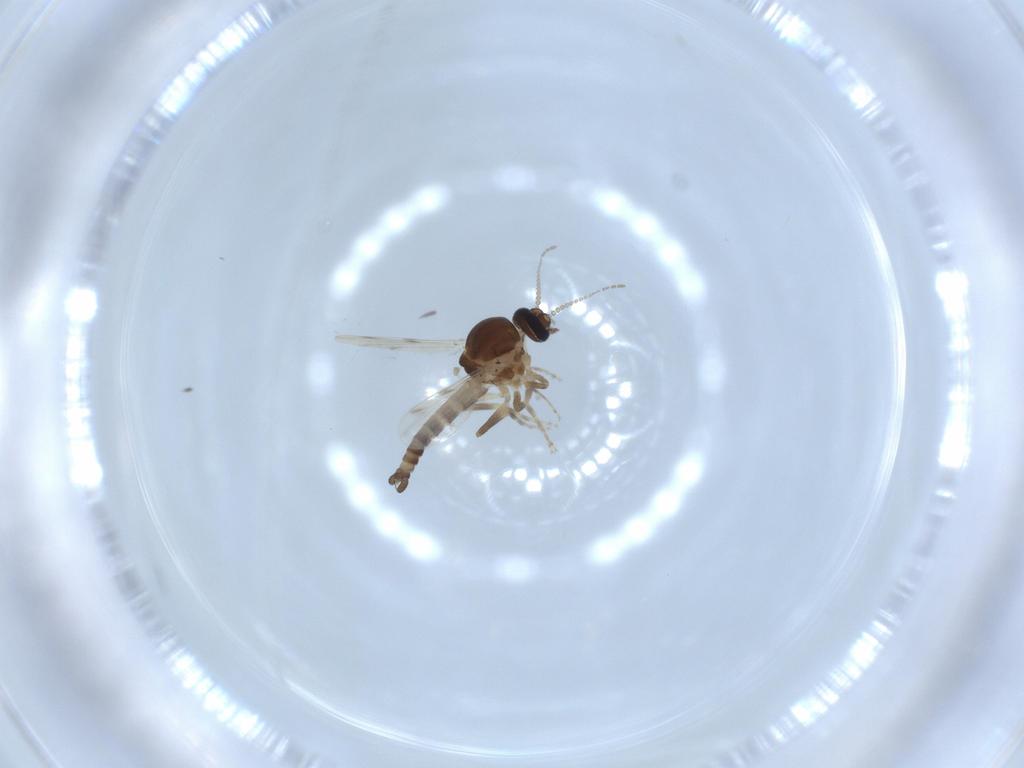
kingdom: Animalia
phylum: Arthropoda
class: Insecta
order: Diptera
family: Ceratopogonidae
